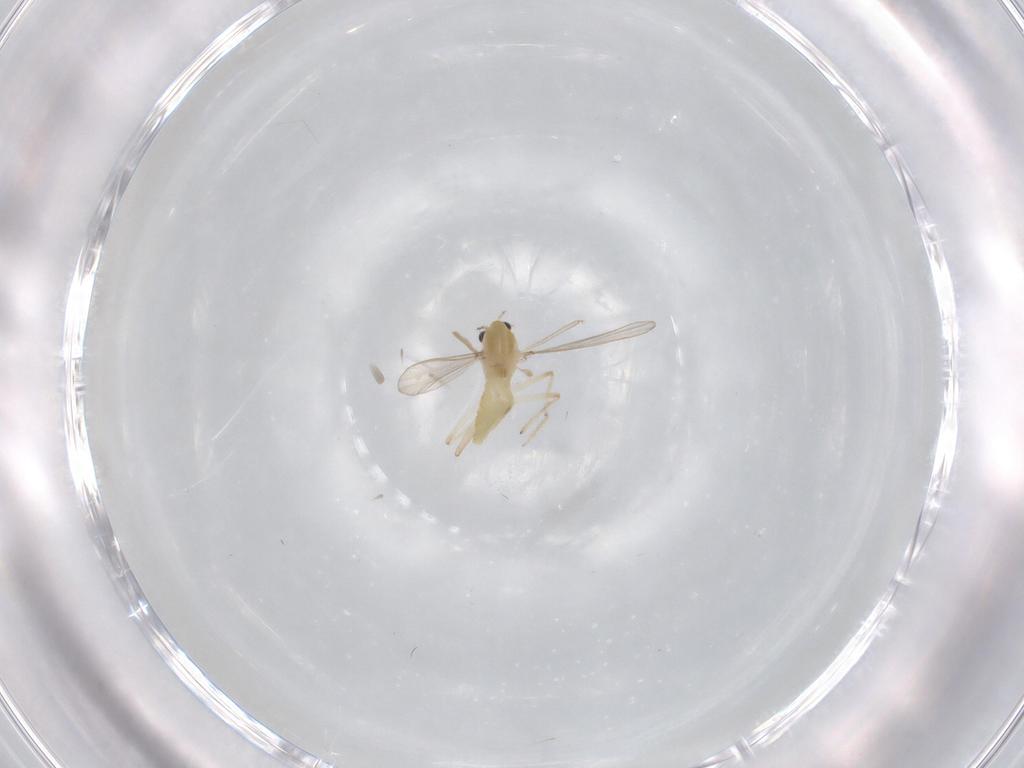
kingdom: Animalia
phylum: Arthropoda
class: Insecta
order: Diptera
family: Chironomidae
